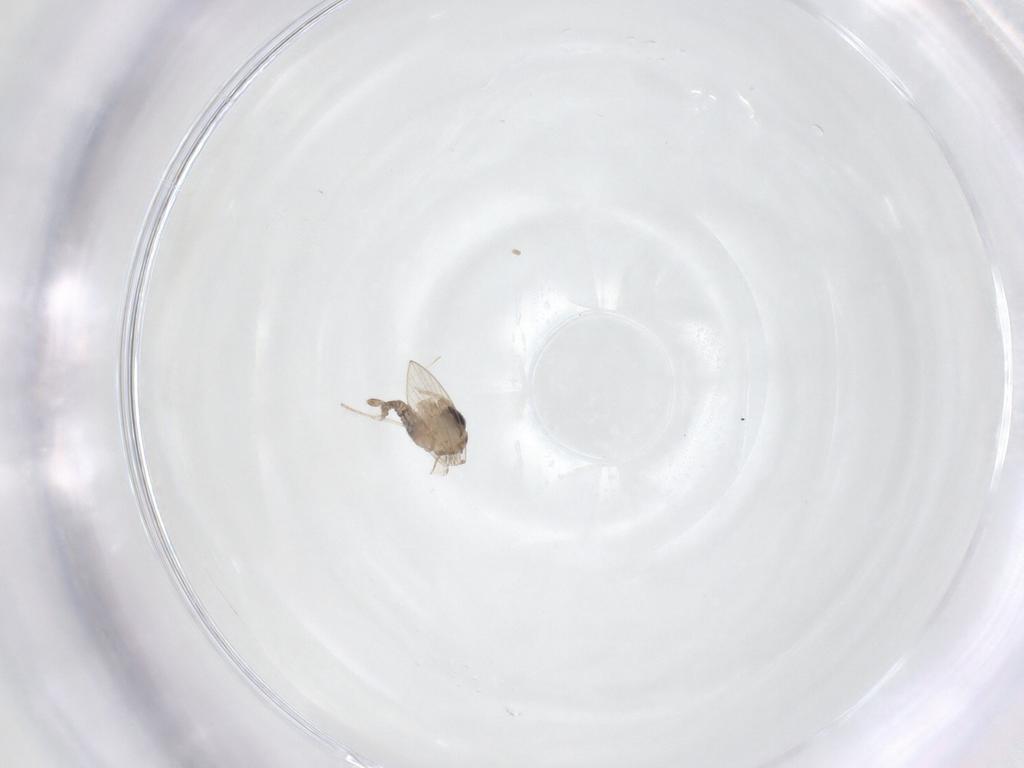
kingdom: Animalia
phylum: Arthropoda
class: Insecta
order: Diptera
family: Psychodidae
